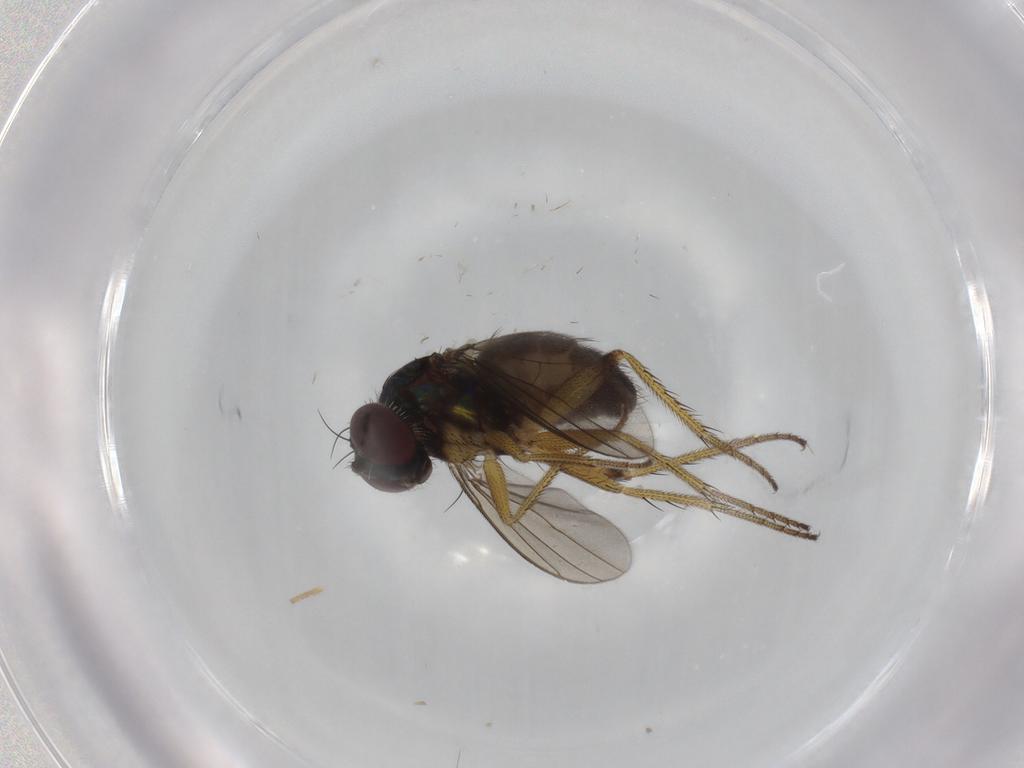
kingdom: Animalia
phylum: Arthropoda
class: Insecta
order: Diptera
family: Dolichopodidae
